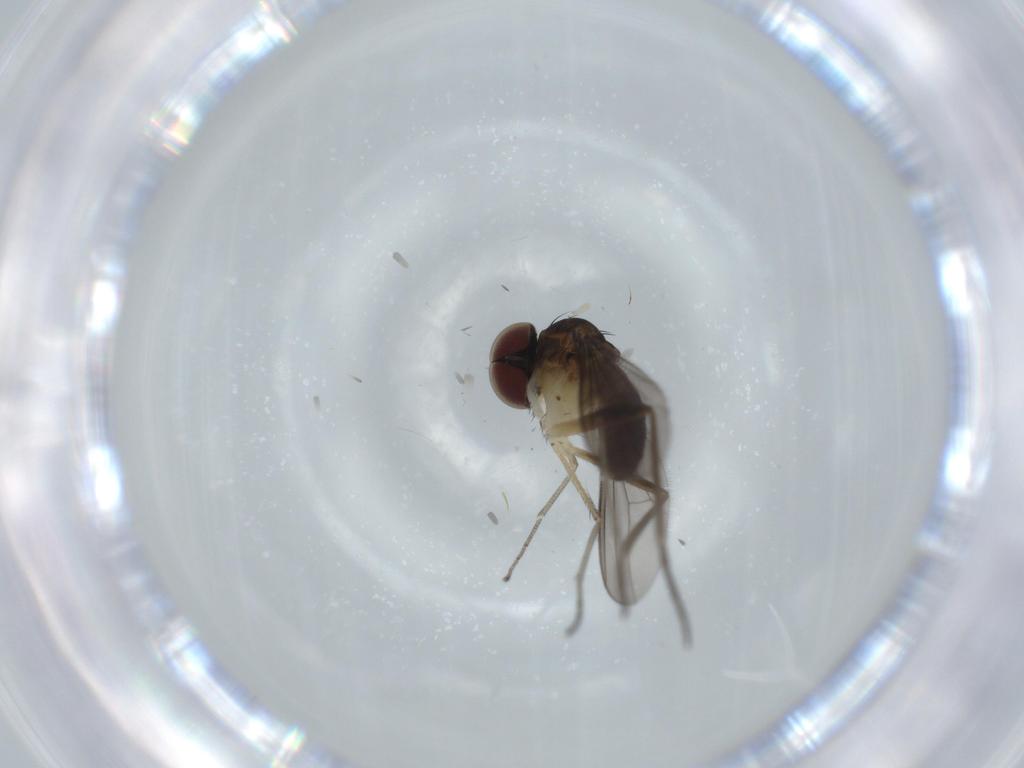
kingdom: Animalia
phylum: Arthropoda
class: Insecta
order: Diptera
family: Dolichopodidae
